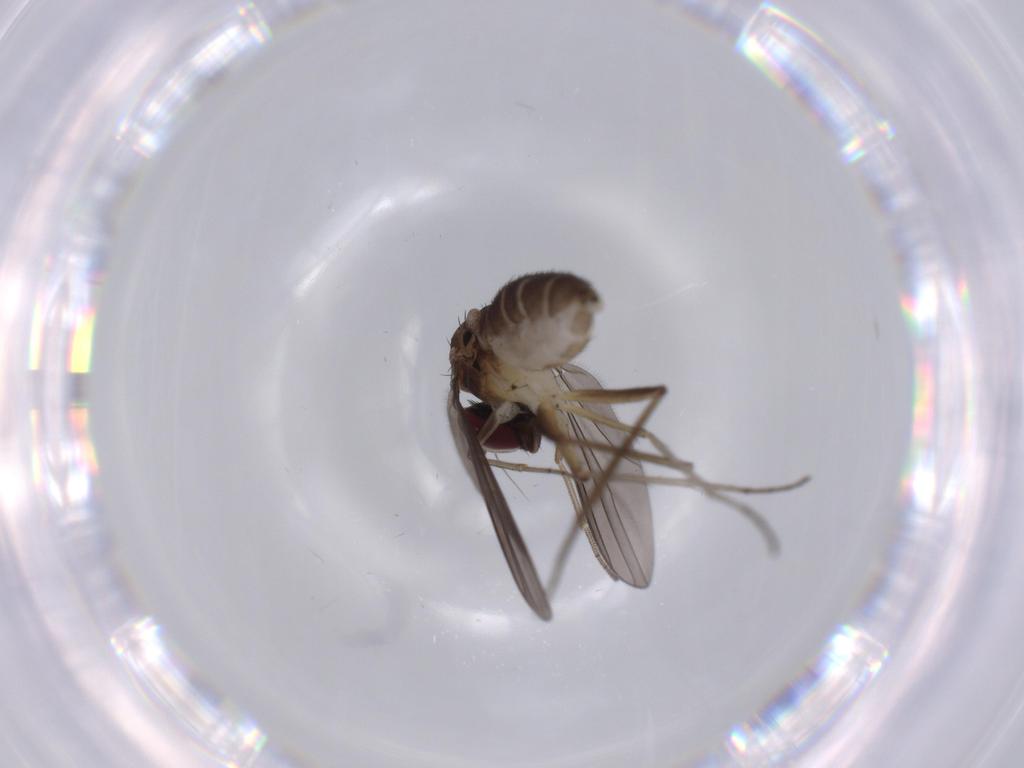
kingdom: Animalia
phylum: Arthropoda
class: Insecta
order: Diptera
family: Dolichopodidae
